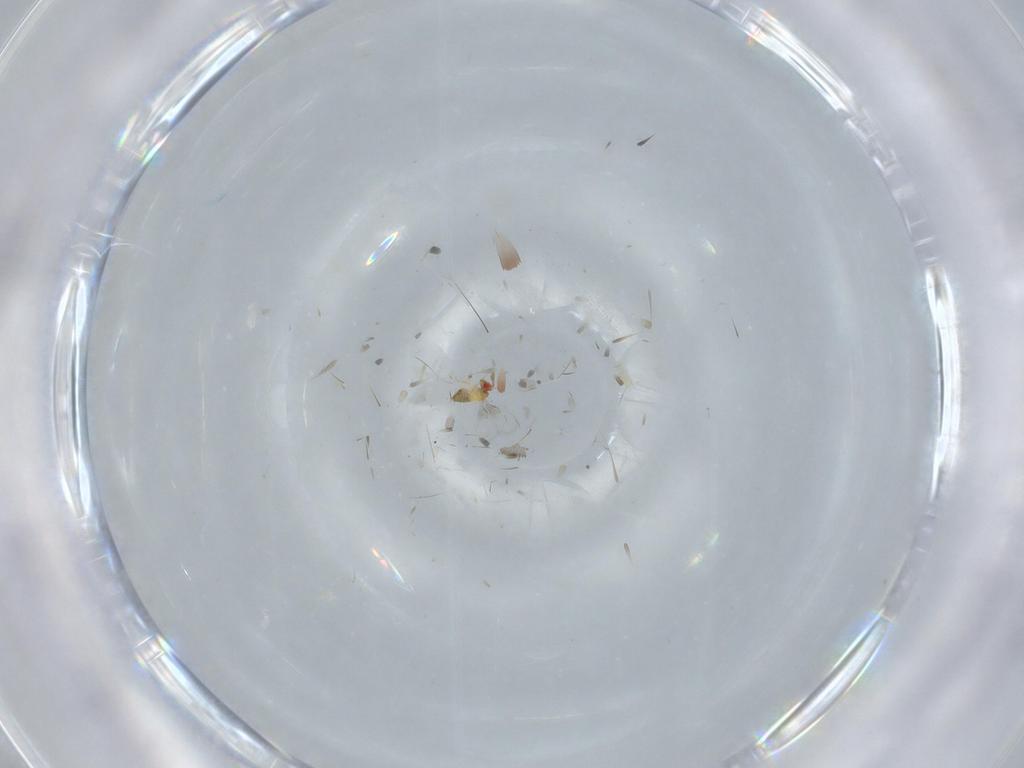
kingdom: Animalia
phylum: Arthropoda
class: Insecta
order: Hymenoptera
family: Trichogrammatidae
